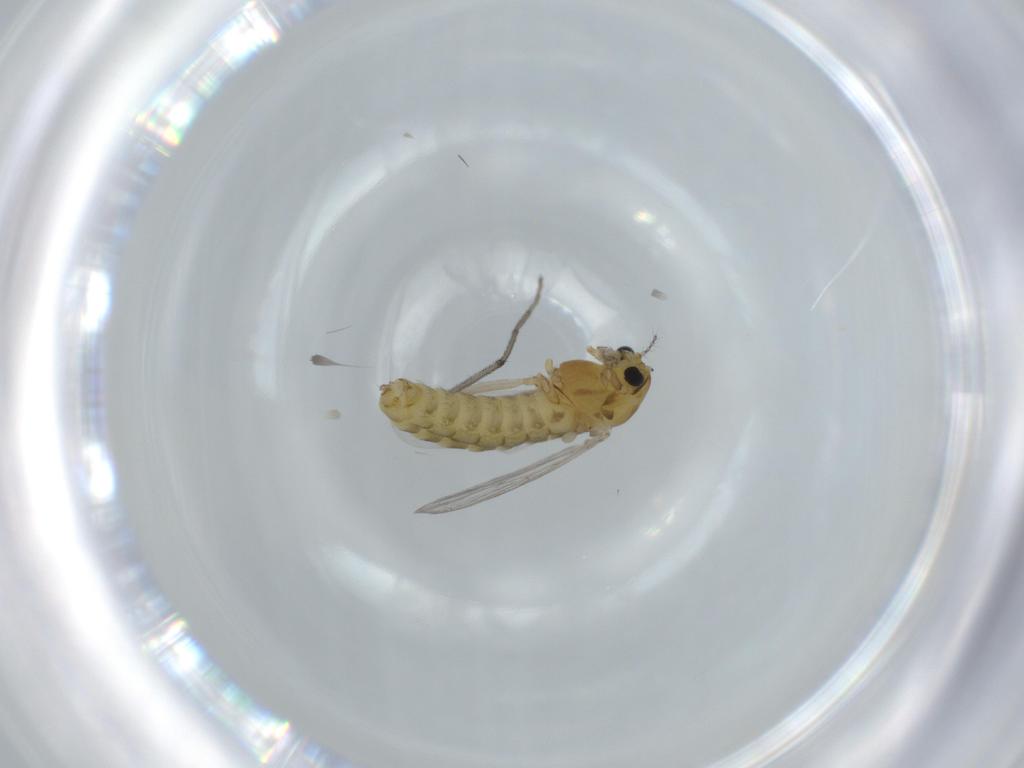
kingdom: Animalia
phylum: Arthropoda
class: Insecta
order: Diptera
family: Chironomidae
